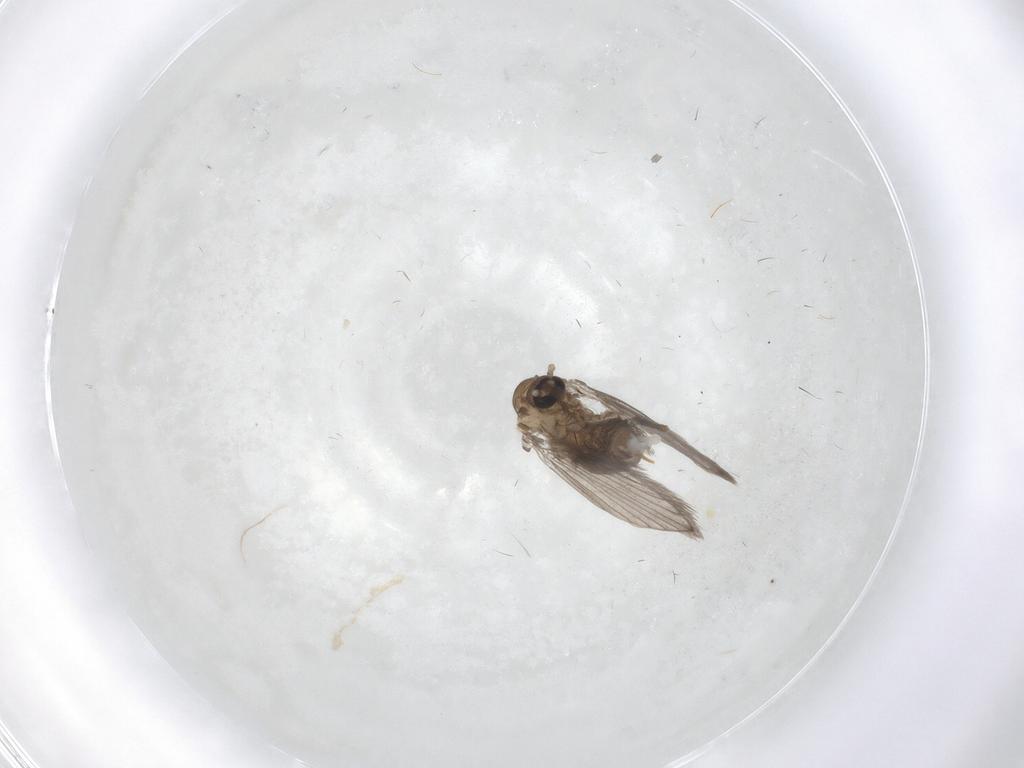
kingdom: Animalia
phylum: Arthropoda
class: Insecta
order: Diptera
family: Psychodidae
